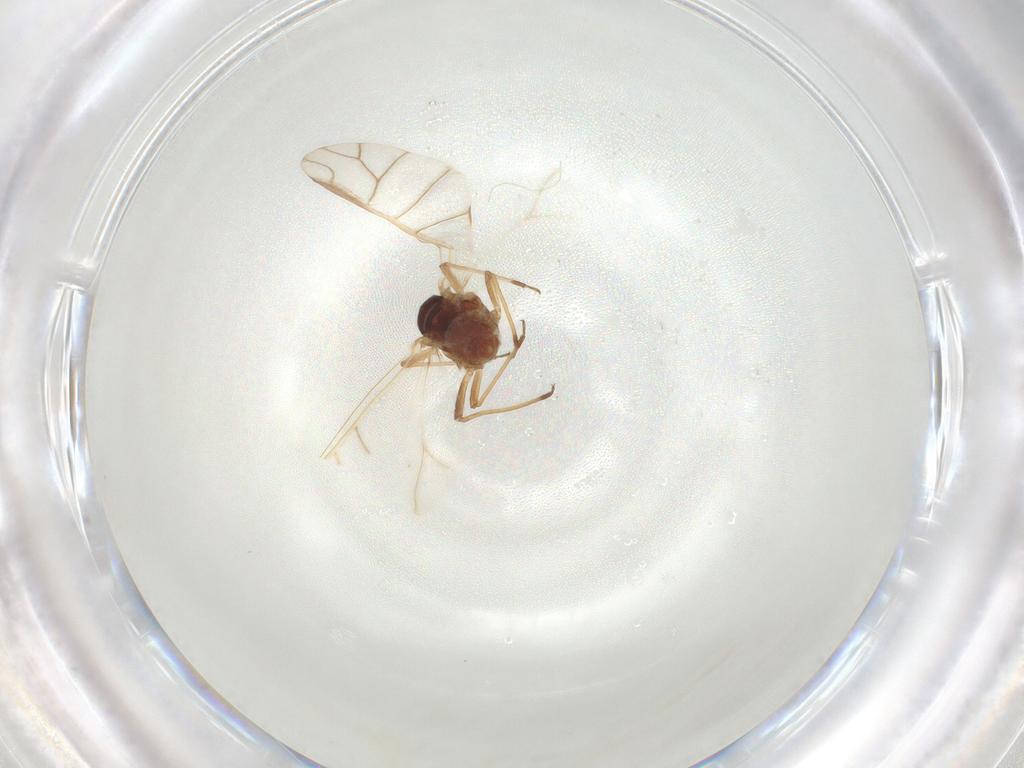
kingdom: Animalia
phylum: Arthropoda
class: Insecta
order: Hemiptera
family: Aphididae
